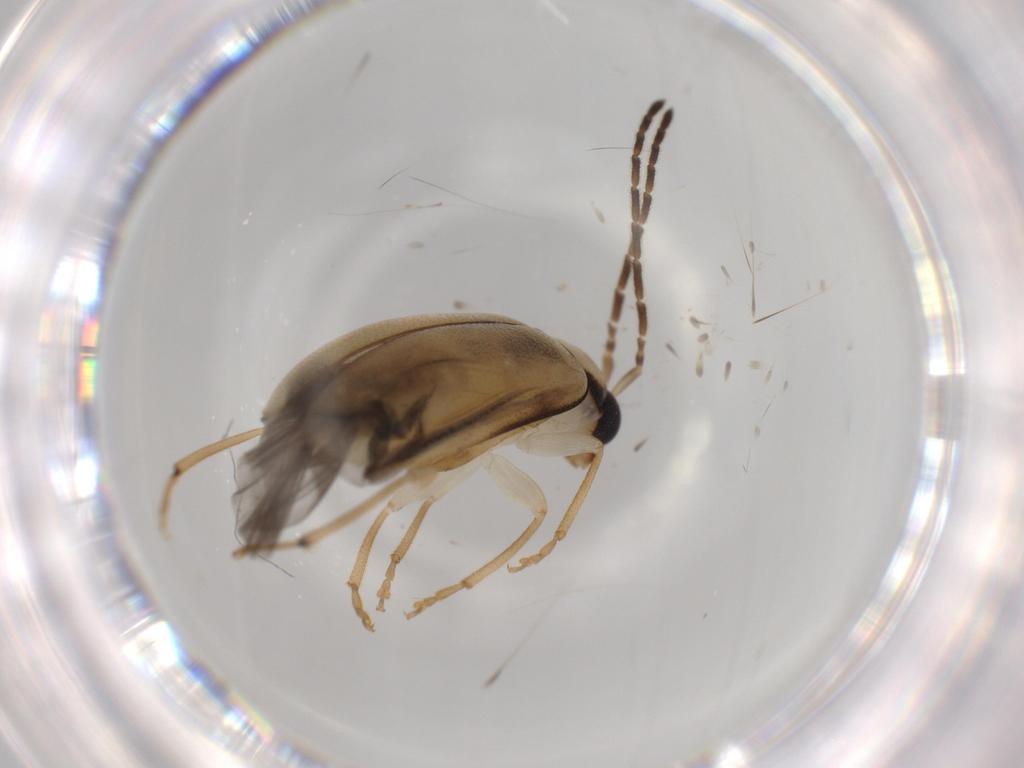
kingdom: Animalia
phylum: Arthropoda
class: Insecta
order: Coleoptera
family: Chrysomelidae
